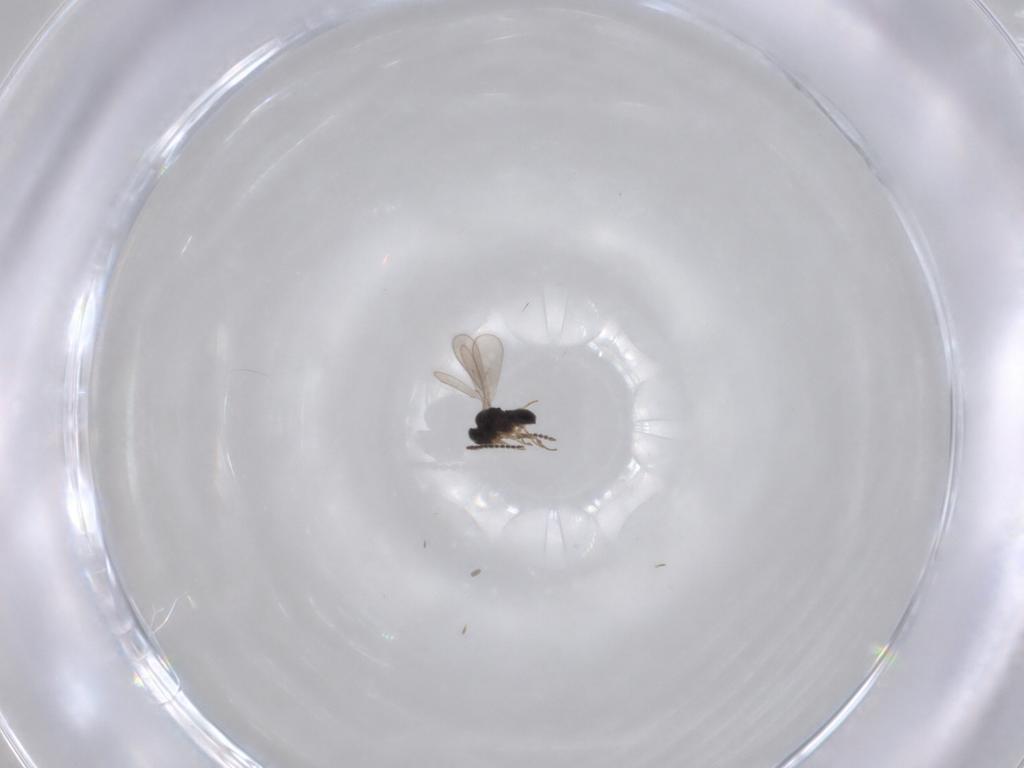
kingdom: Animalia
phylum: Arthropoda
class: Insecta
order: Hymenoptera
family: Scelionidae
